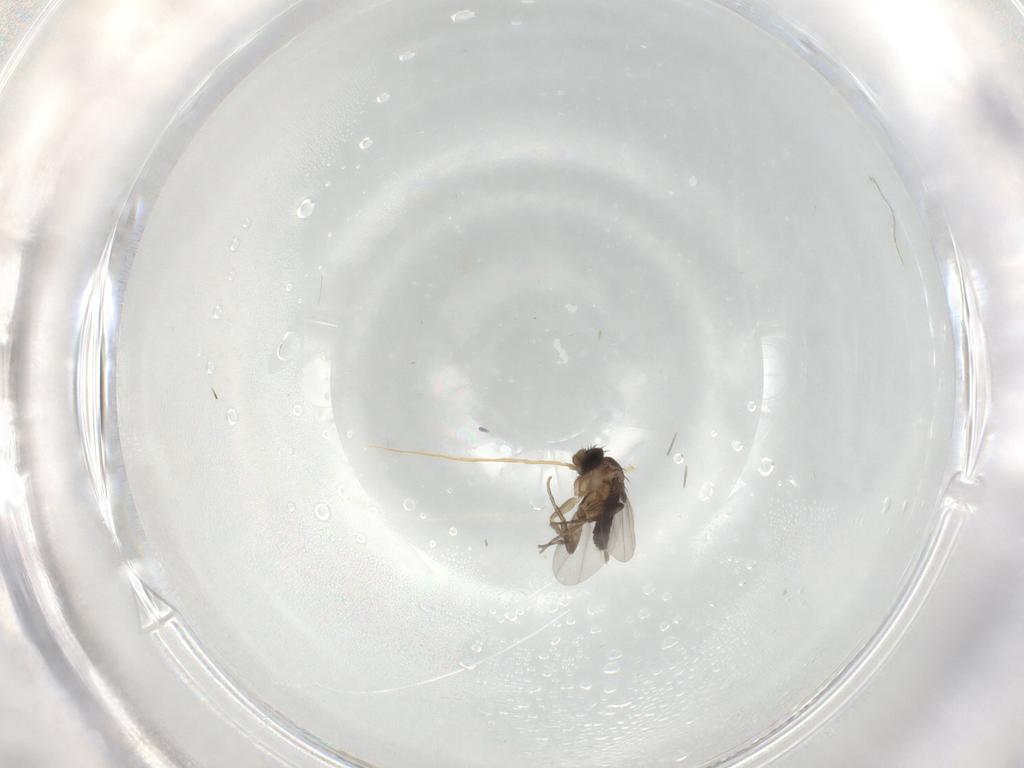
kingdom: Animalia
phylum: Arthropoda
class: Insecta
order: Diptera
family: Phoridae
